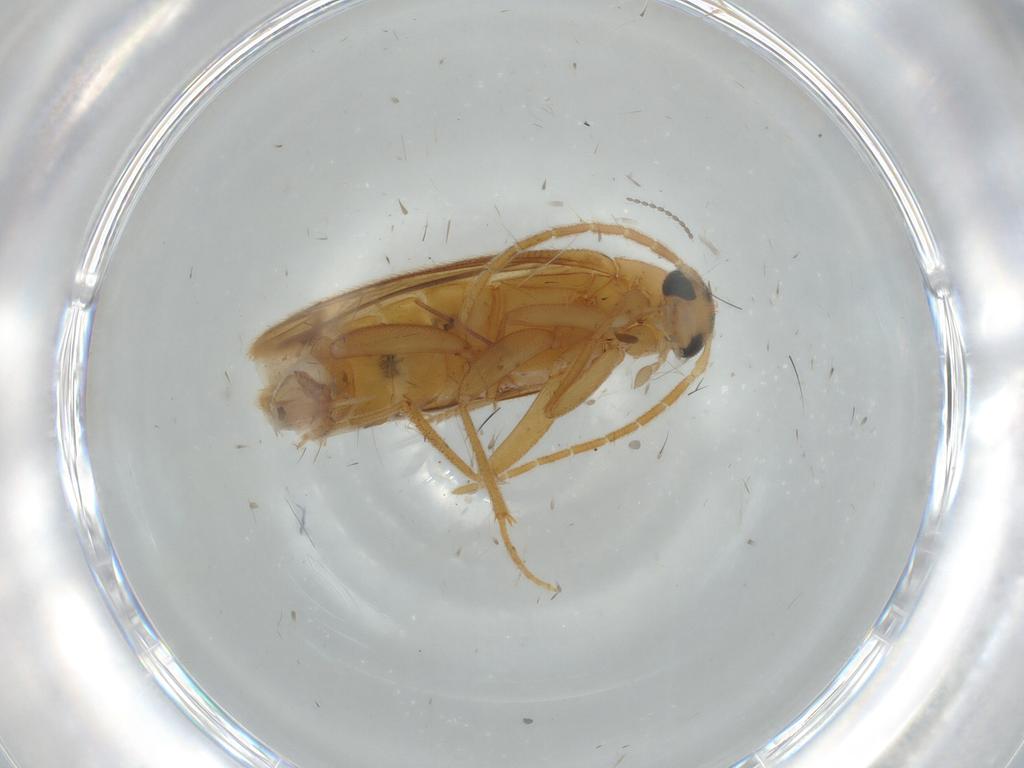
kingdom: Animalia
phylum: Arthropoda
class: Insecta
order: Coleoptera
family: Scraptiidae
